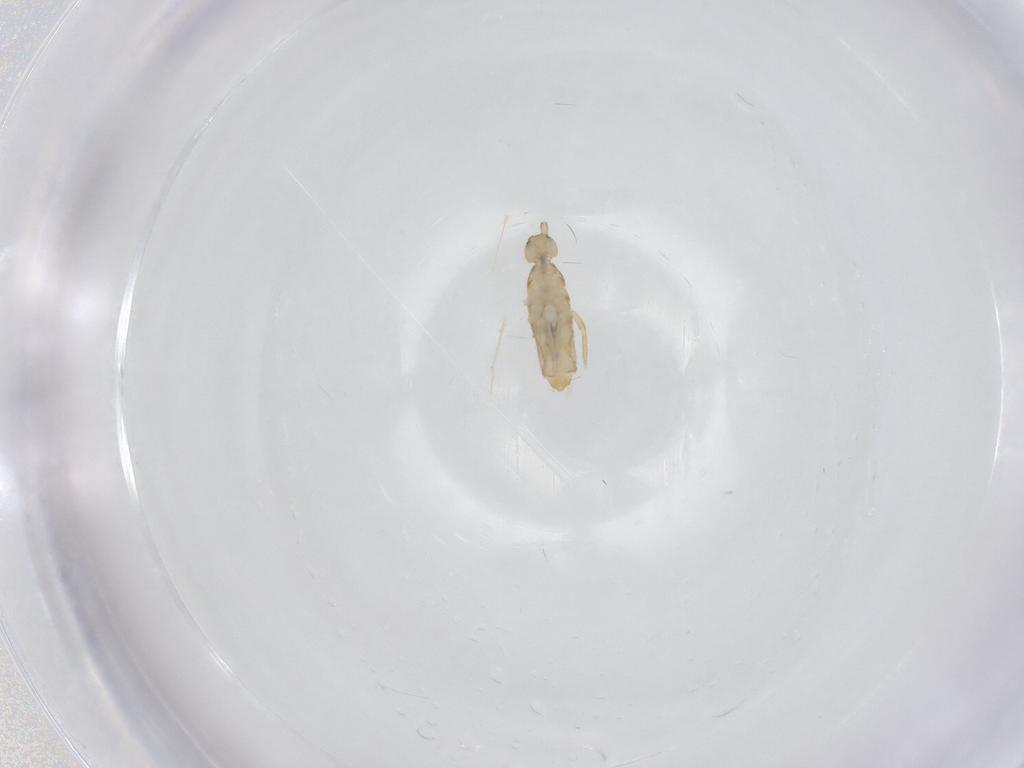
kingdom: Animalia
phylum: Arthropoda
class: Collembola
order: Entomobryomorpha
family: Entomobryidae
